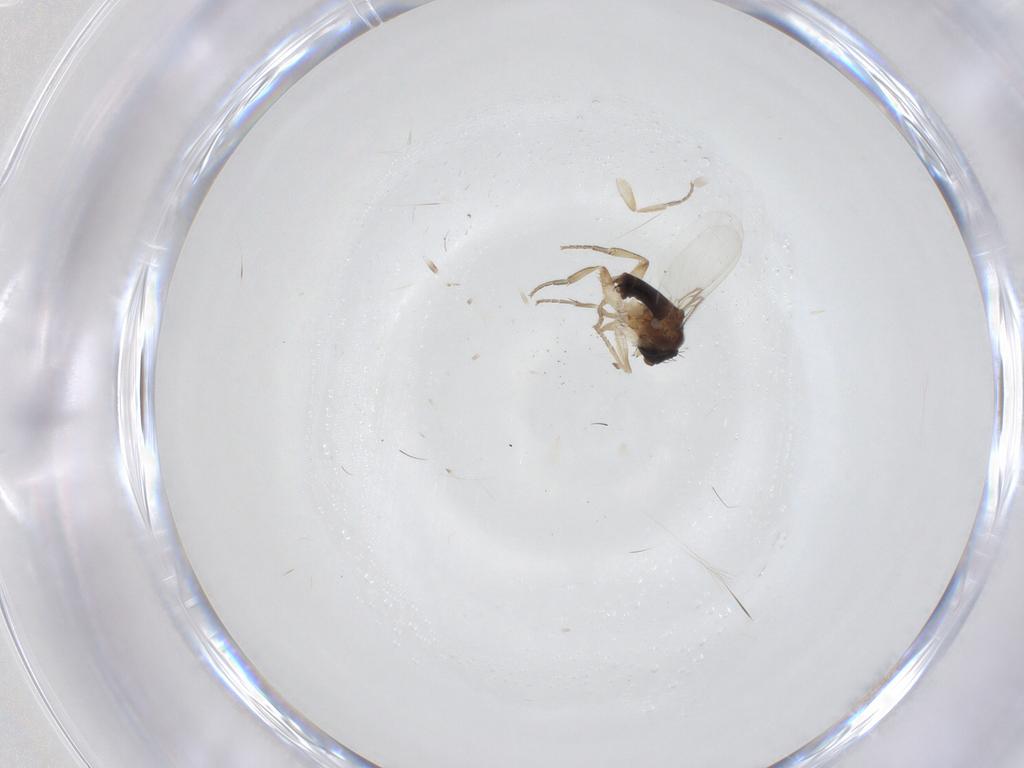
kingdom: Animalia
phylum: Arthropoda
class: Insecta
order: Diptera
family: Phoridae
